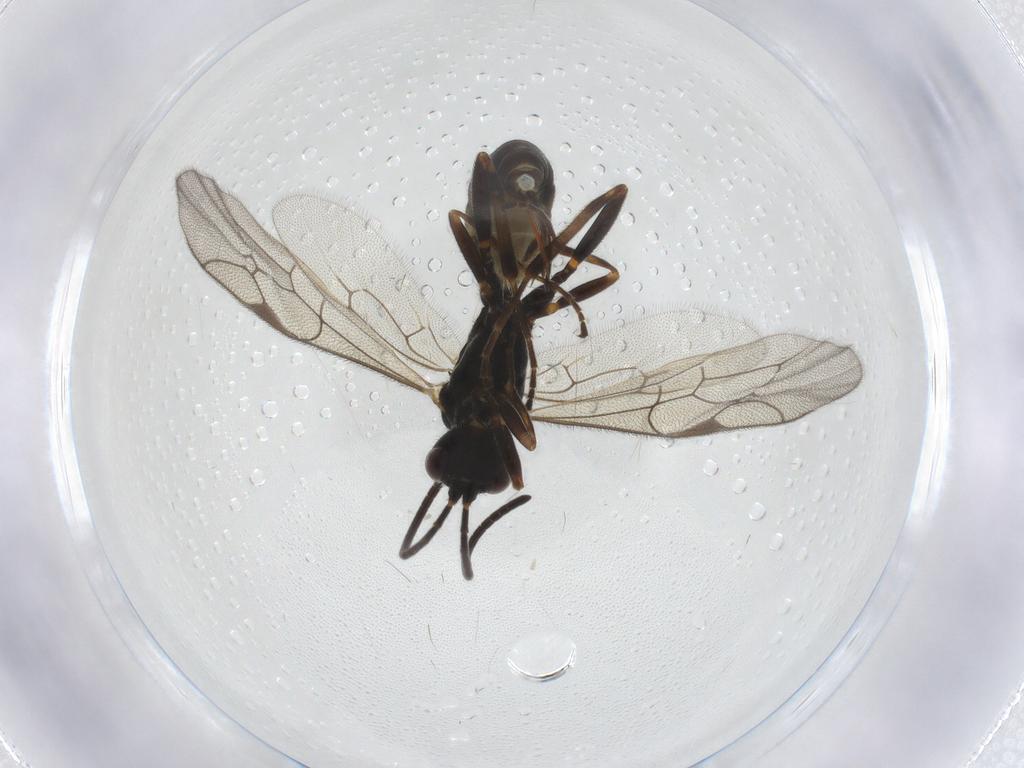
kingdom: Animalia
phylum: Arthropoda
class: Insecta
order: Hymenoptera
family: Ichneumonidae
